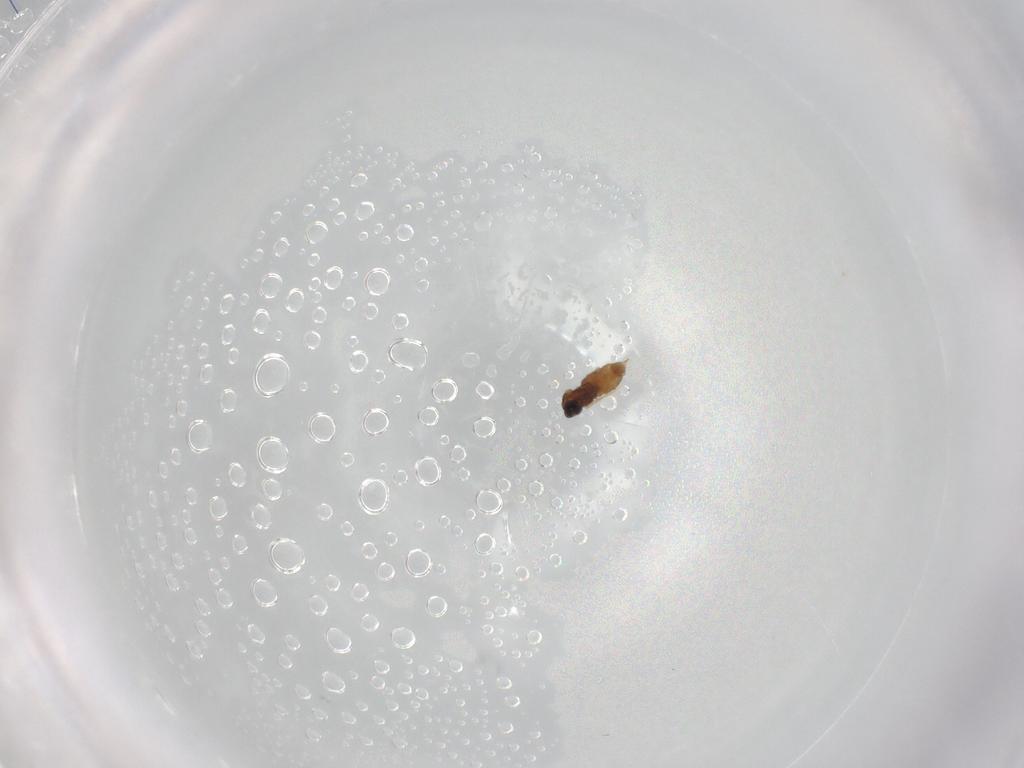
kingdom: Animalia
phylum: Arthropoda
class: Insecta
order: Diptera
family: Cecidomyiidae
